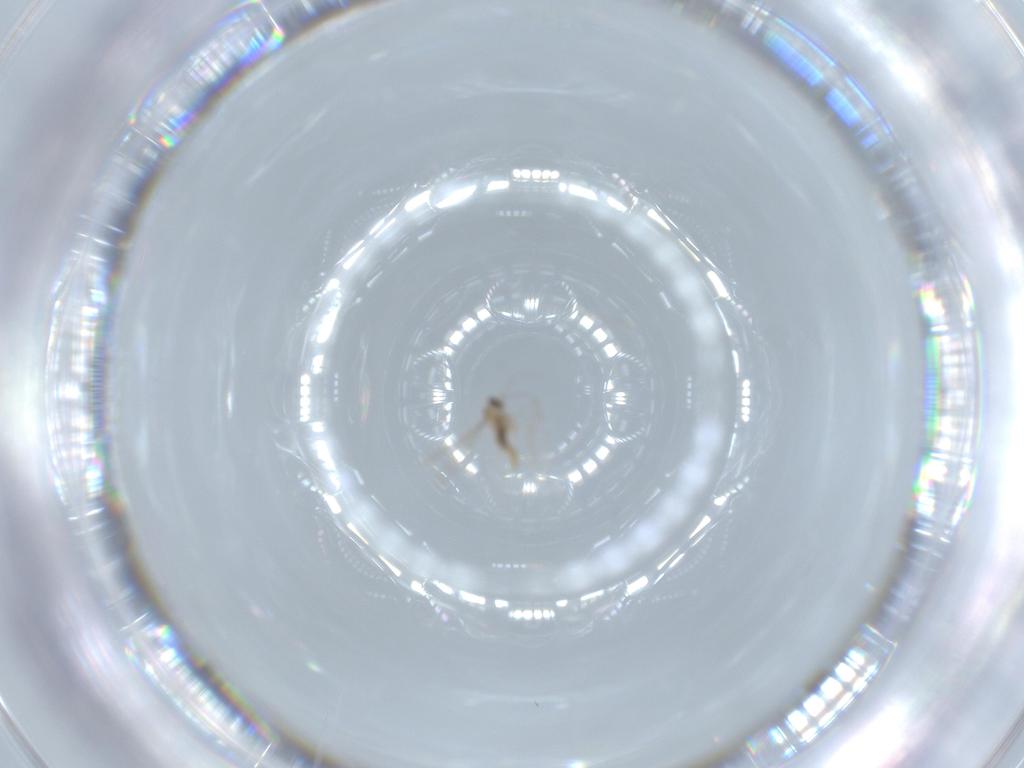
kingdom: Animalia
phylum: Arthropoda
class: Insecta
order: Diptera
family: Cecidomyiidae
